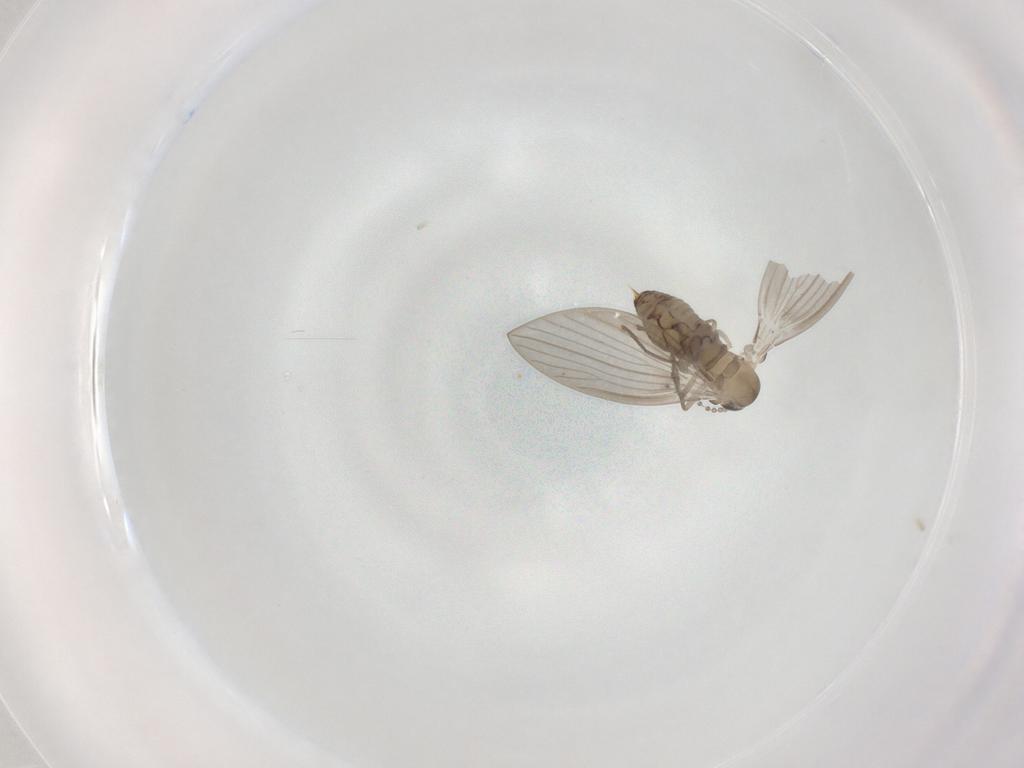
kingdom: Animalia
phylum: Arthropoda
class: Insecta
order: Diptera
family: Psychodidae
